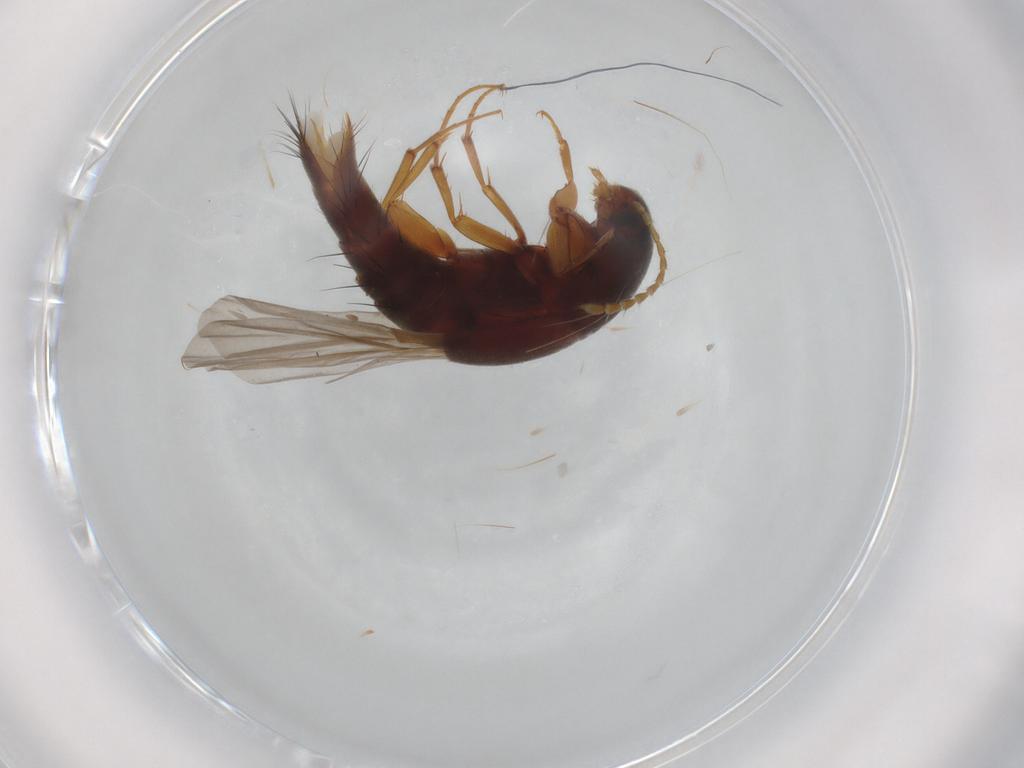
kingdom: Animalia
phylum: Arthropoda
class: Insecta
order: Coleoptera
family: Staphylinidae
